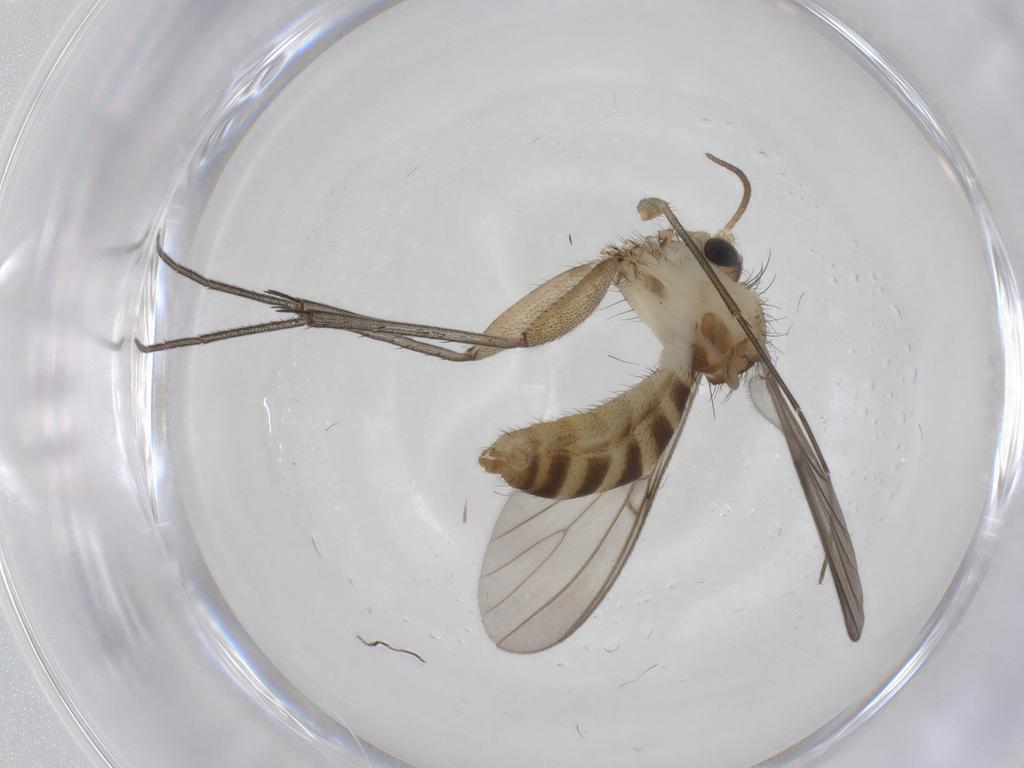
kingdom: Animalia
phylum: Arthropoda
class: Insecta
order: Diptera
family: Mycetophilidae
